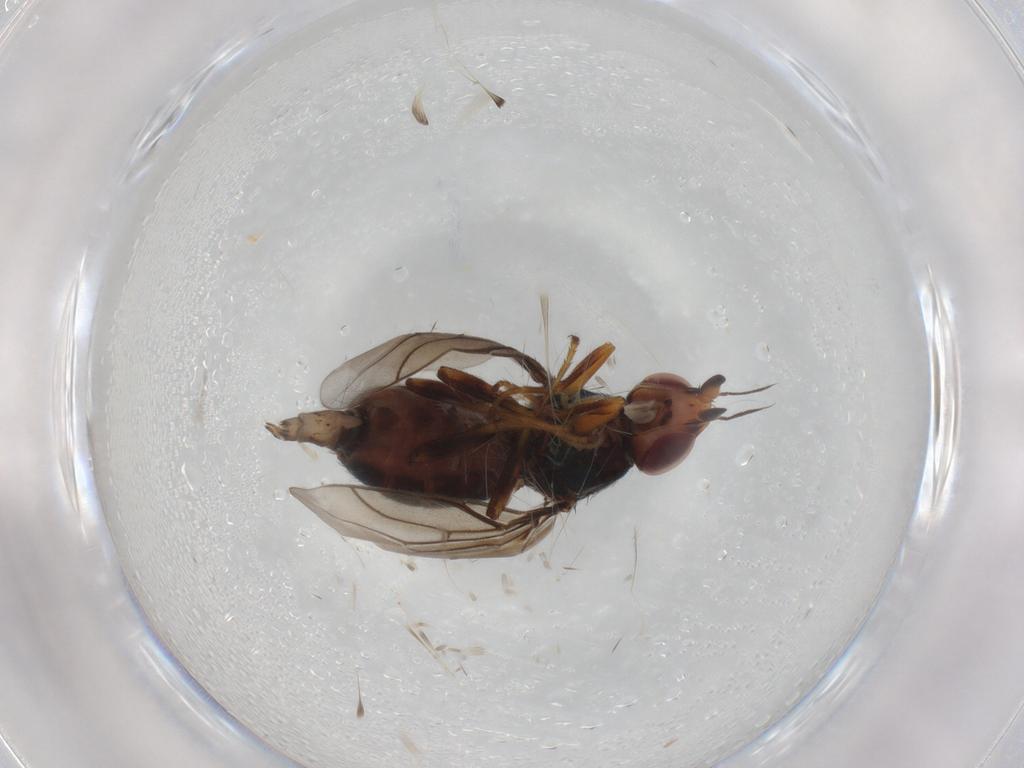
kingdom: Animalia
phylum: Arthropoda
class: Insecta
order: Diptera
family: Chloropidae
